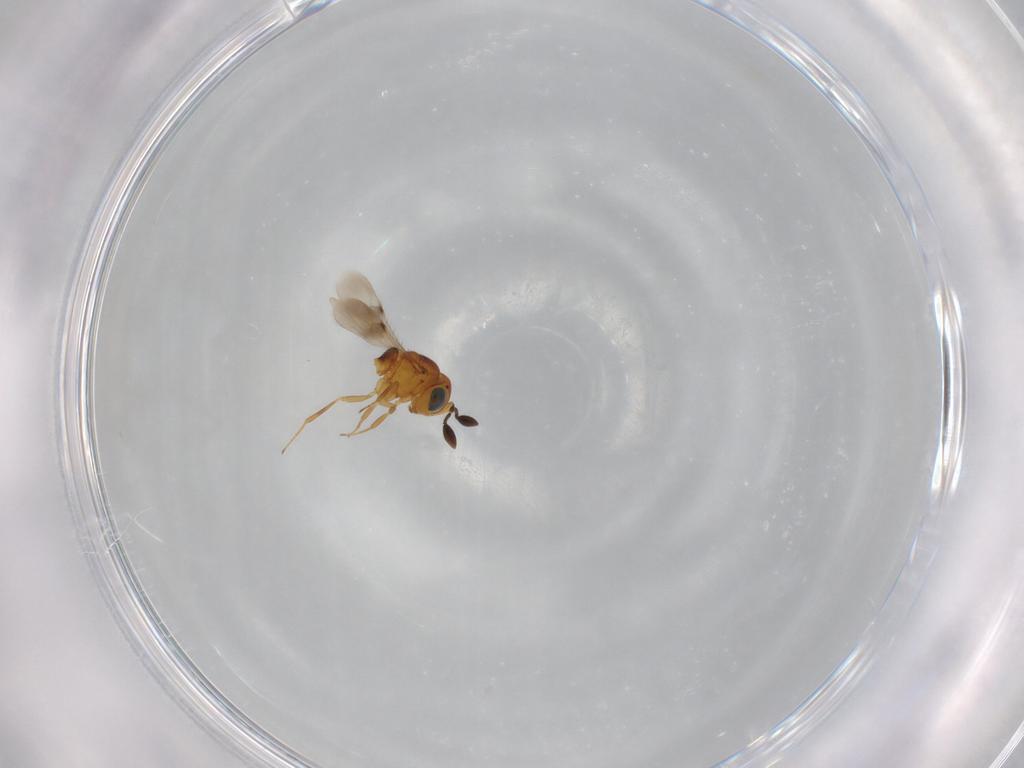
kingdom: Animalia
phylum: Arthropoda
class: Insecta
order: Hymenoptera
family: Scelionidae
